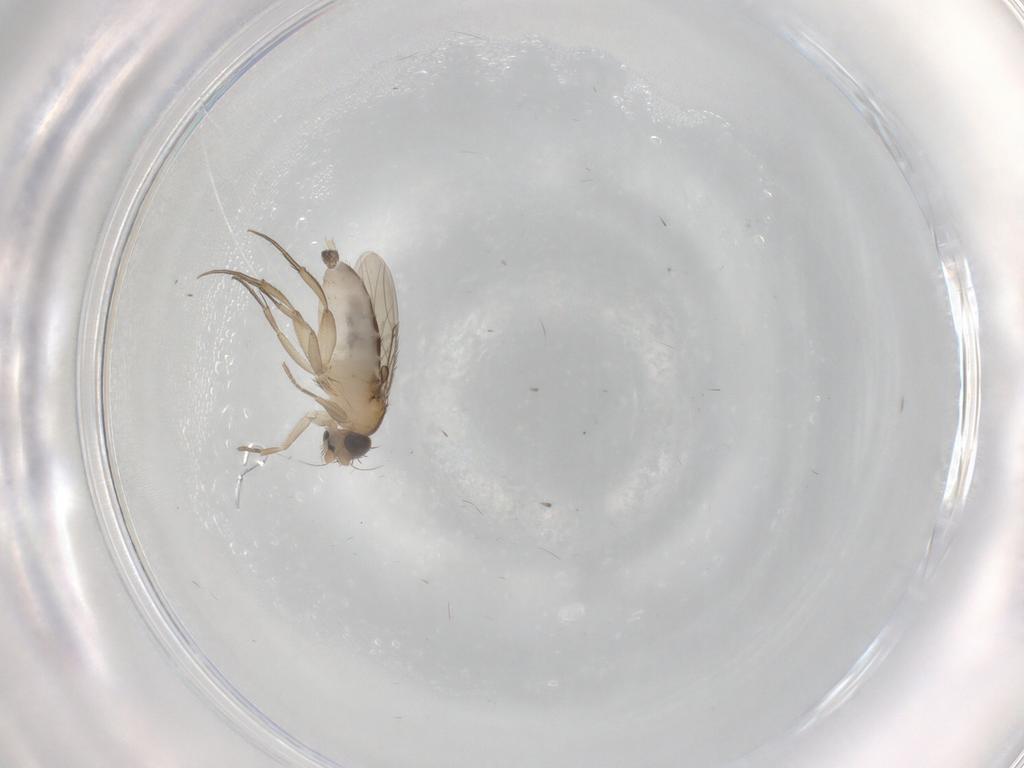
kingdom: Animalia
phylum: Arthropoda
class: Insecta
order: Diptera
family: Phoridae
